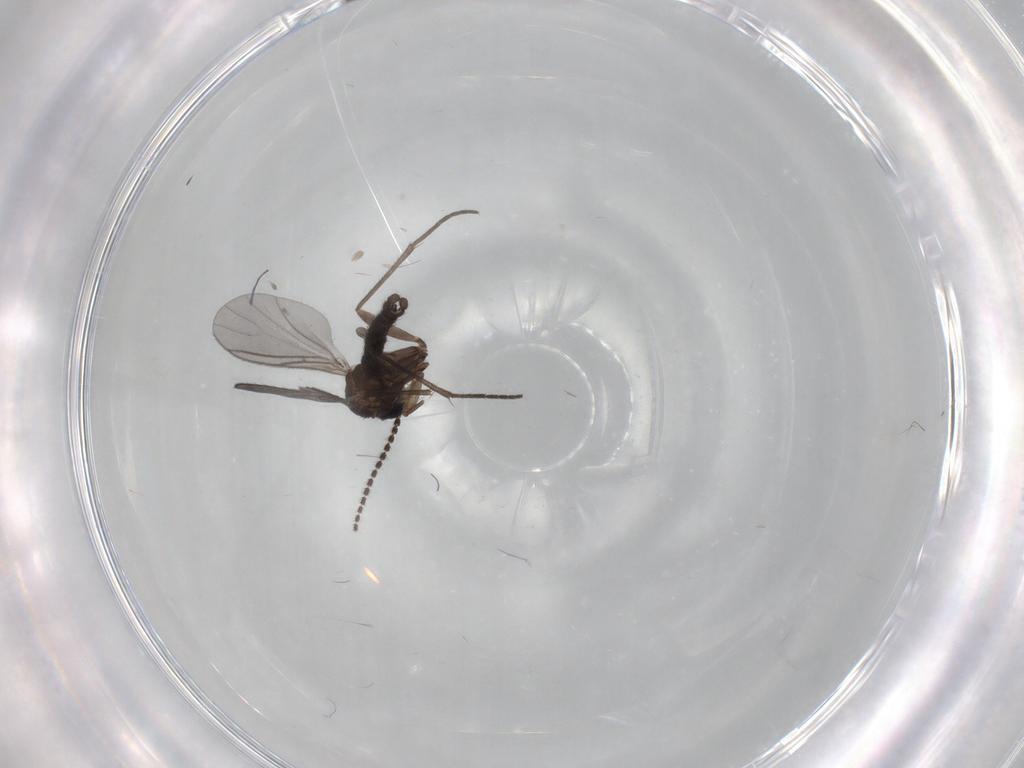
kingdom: Animalia
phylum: Arthropoda
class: Insecta
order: Diptera
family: Sciaridae
